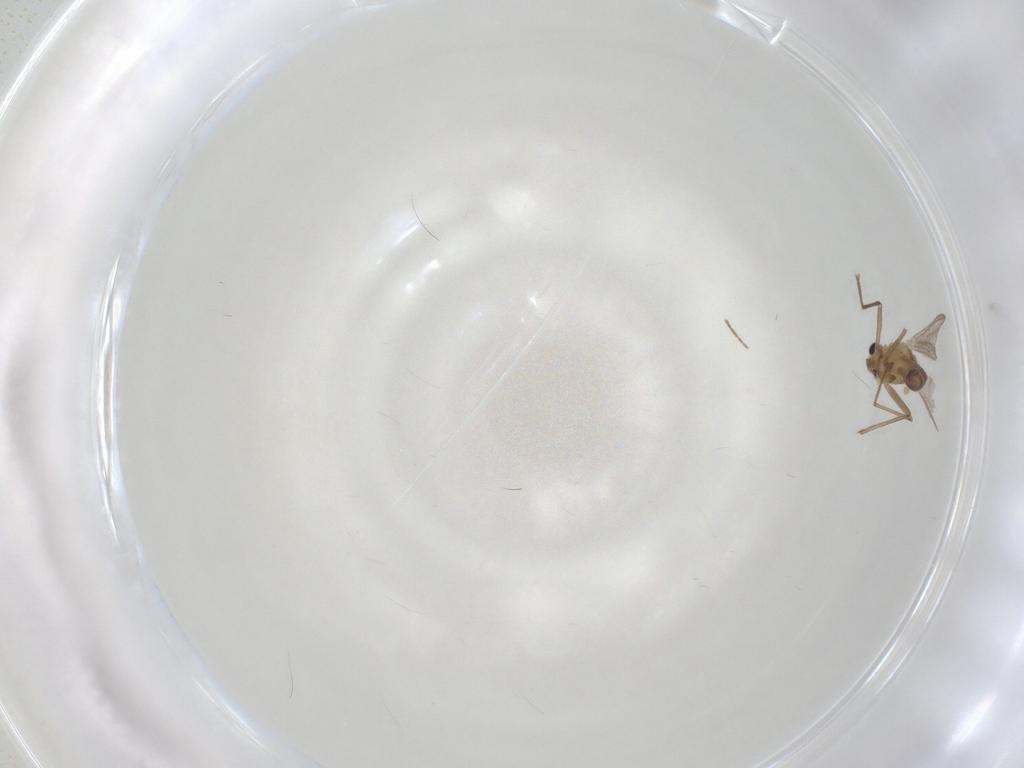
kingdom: Animalia
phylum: Arthropoda
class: Insecta
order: Diptera
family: Chironomidae
